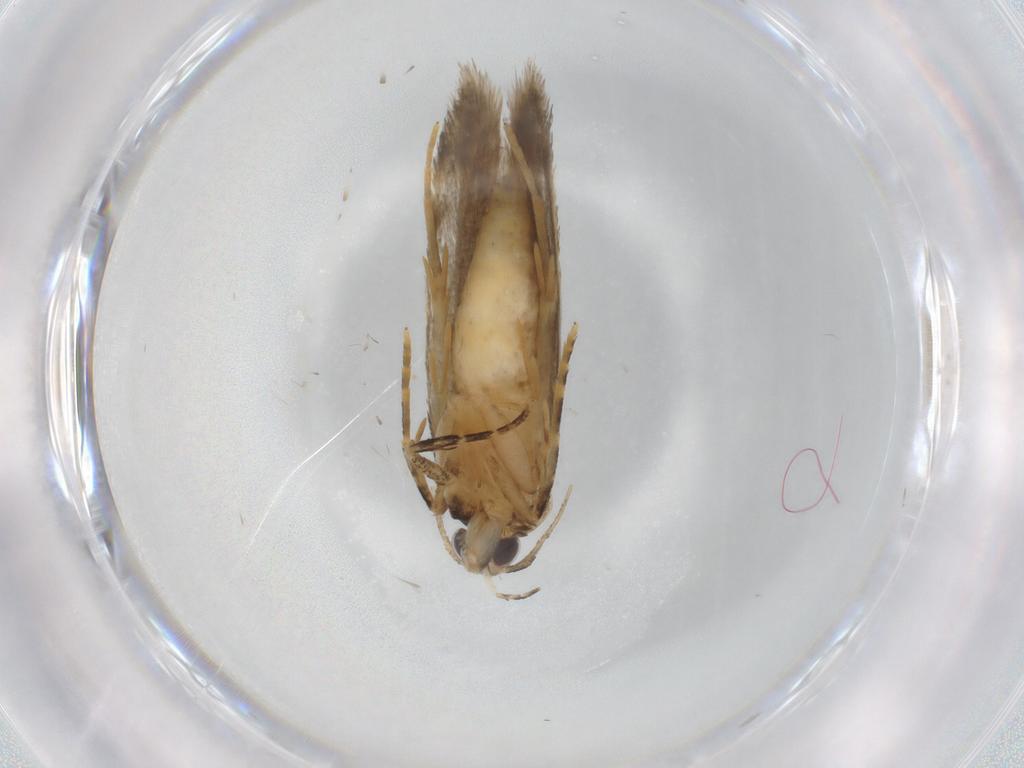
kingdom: Animalia
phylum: Arthropoda
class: Insecta
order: Lepidoptera
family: Autostichidae
